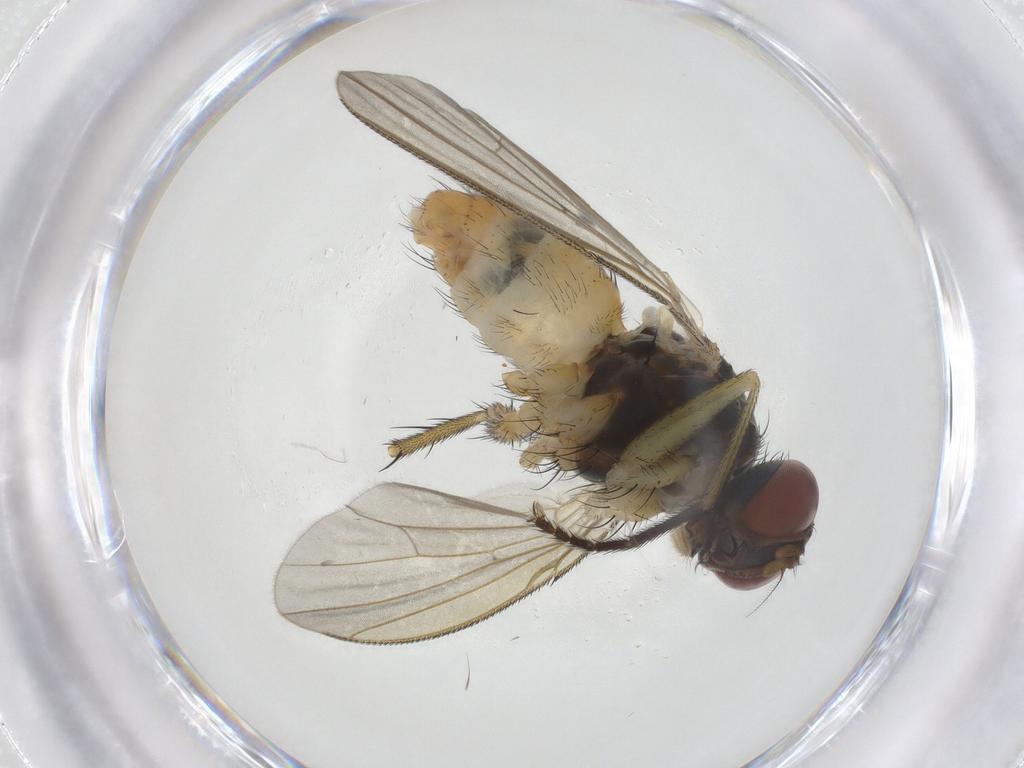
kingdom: Animalia
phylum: Arthropoda
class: Insecta
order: Diptera
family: Muscidae
